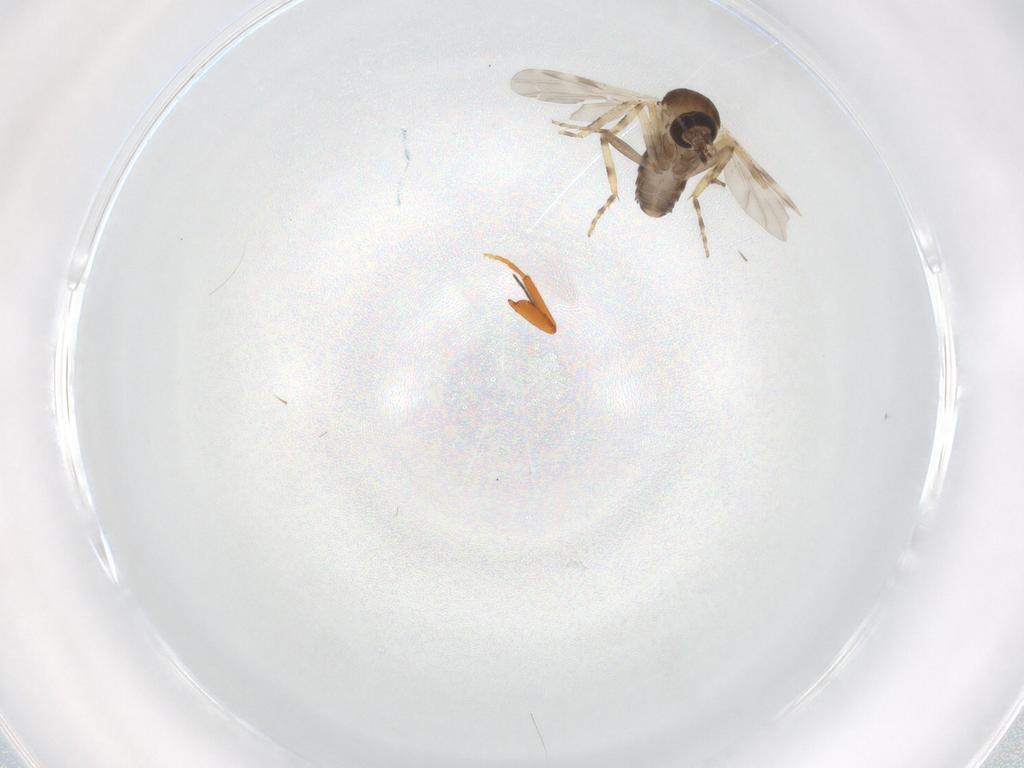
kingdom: Animalia
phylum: Arthropoda
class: Insecta
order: Diptera
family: Ceratopogonidae
